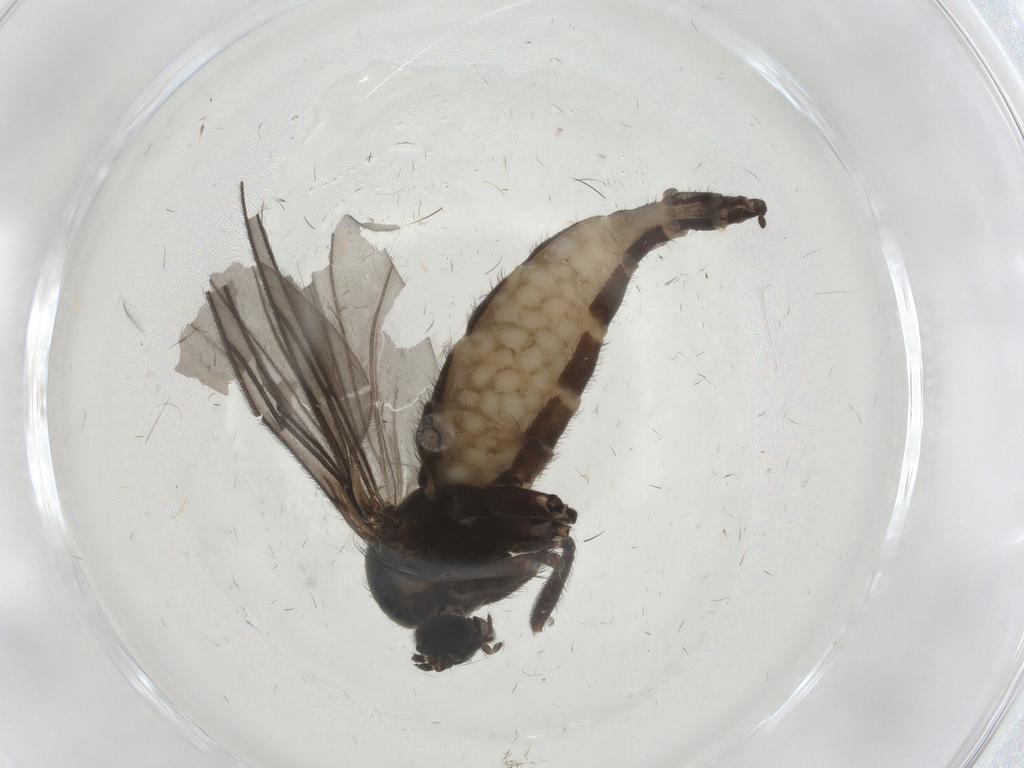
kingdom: Animalia
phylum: Arthropoda
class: Insecta
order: Diptera
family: Sciaridae
